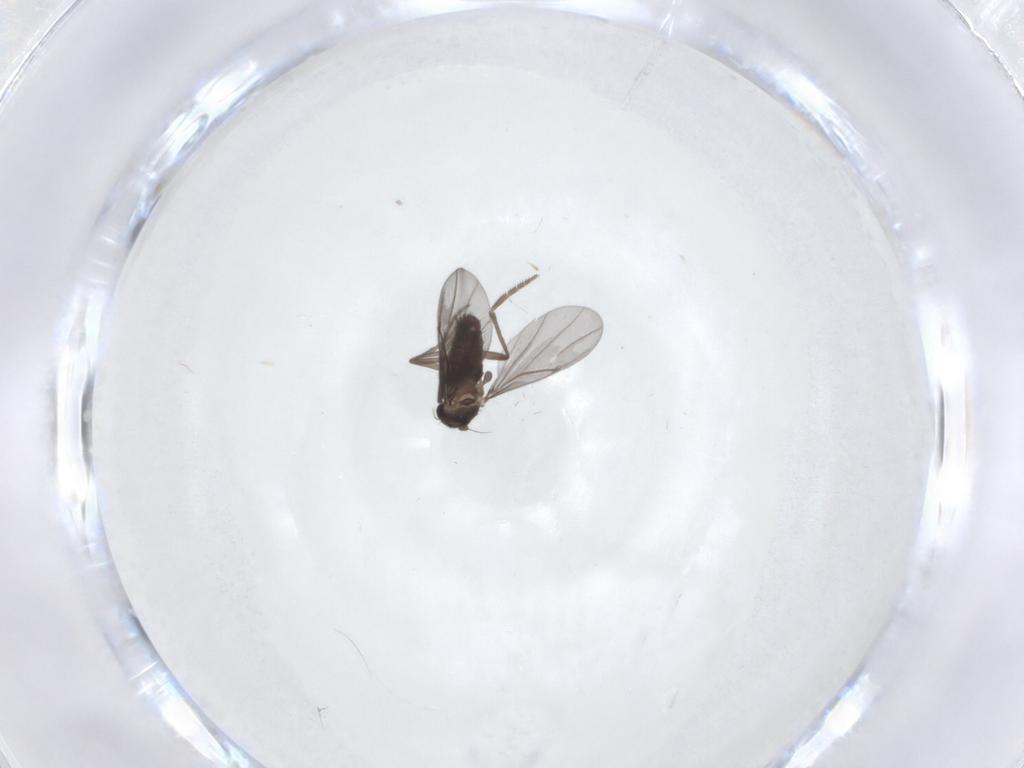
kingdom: Animalia
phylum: Arthropoda
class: Insecta
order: Diptera
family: Phoridae
